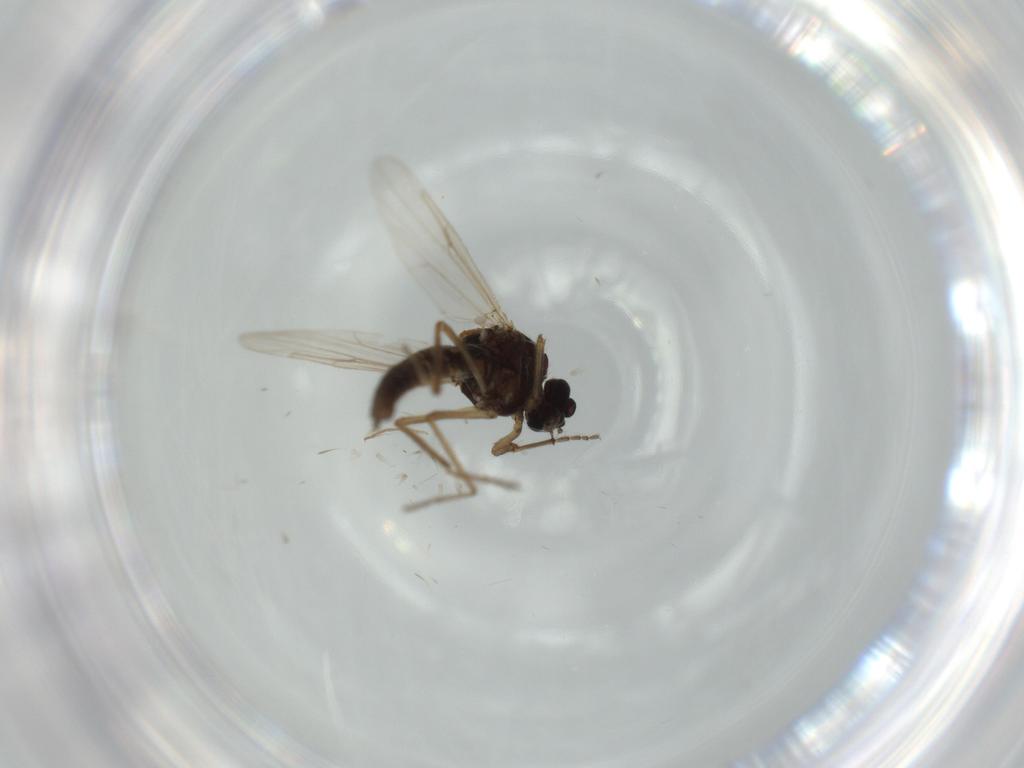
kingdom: Animalia
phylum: Arthropoda
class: Insecta
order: Diptera
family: Ceratopogonidae
